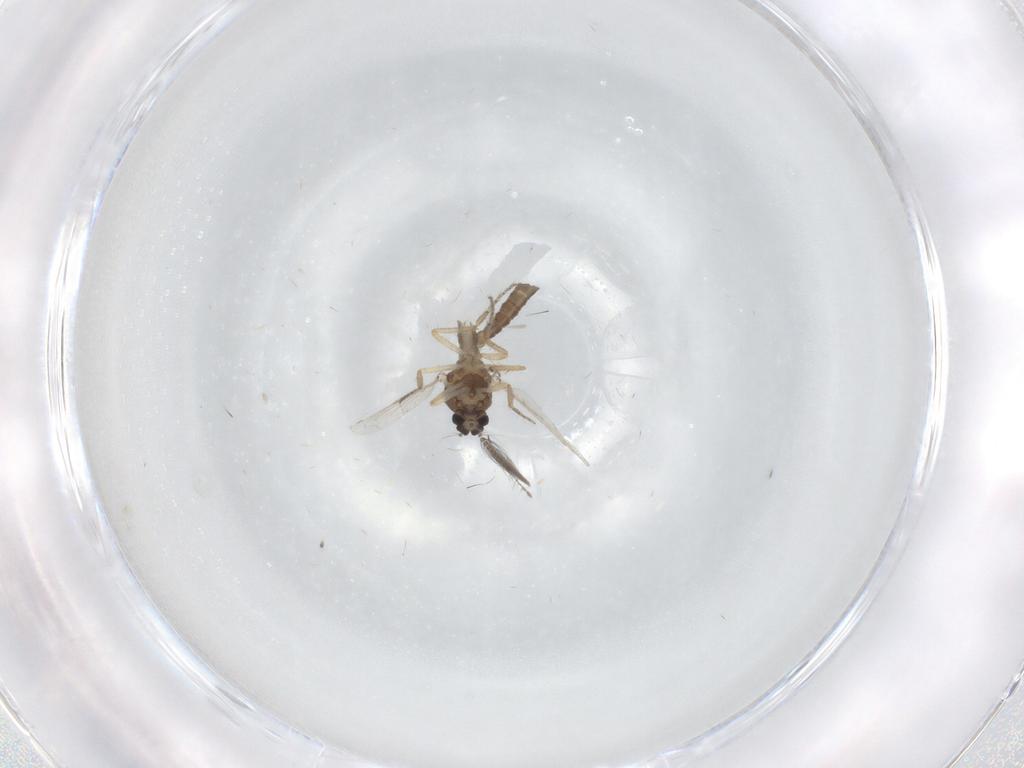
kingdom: Animalia
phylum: Arthropoda
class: Insecta
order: Diptera
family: Ceratopogonidae
